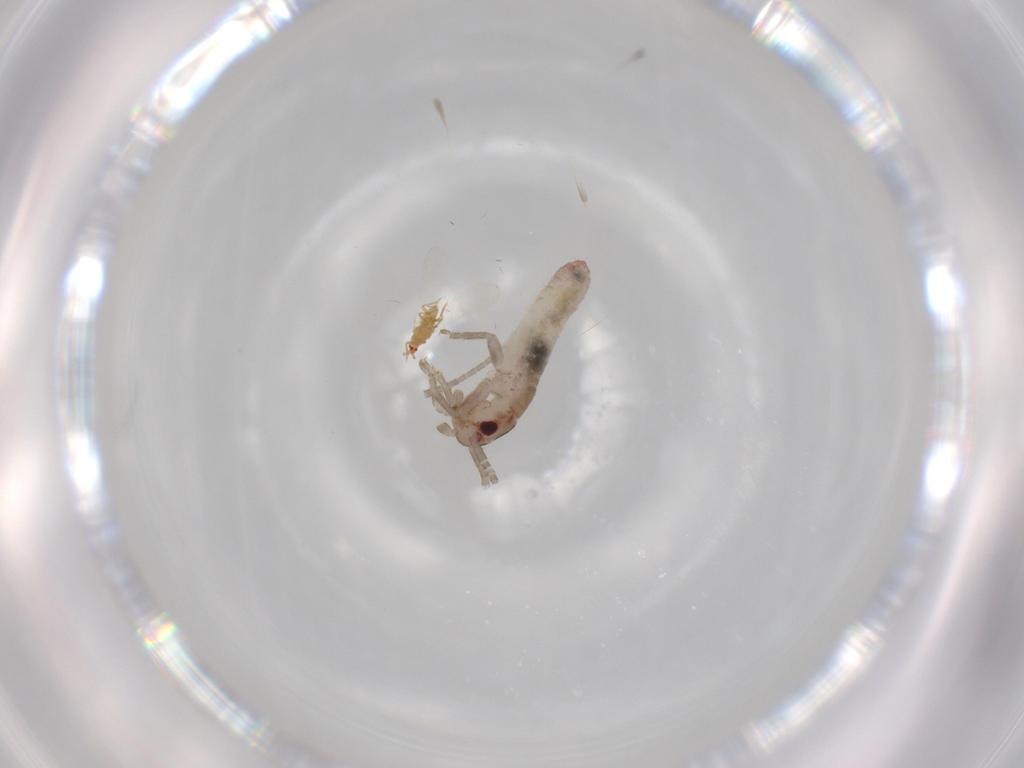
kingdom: Animalia
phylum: Arthropoda
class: Insecta
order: Orthoptera
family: Mogoplistidae
